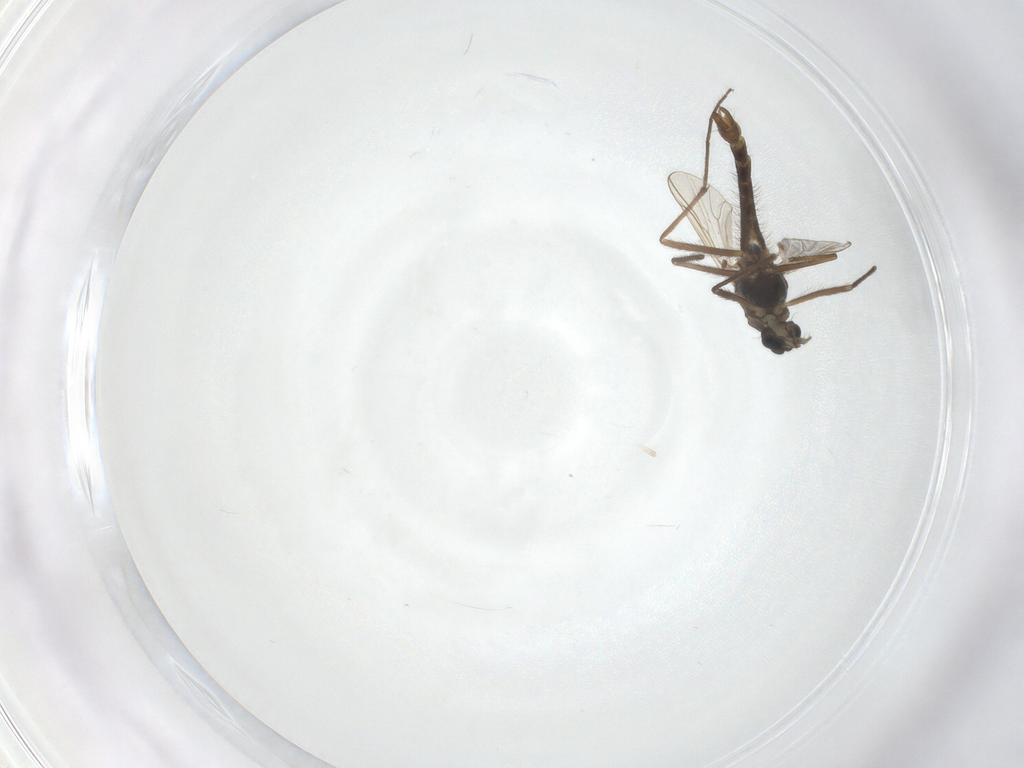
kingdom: Animalia
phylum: Arthropoda
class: Insecta
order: Diptera
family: Chironomidae
